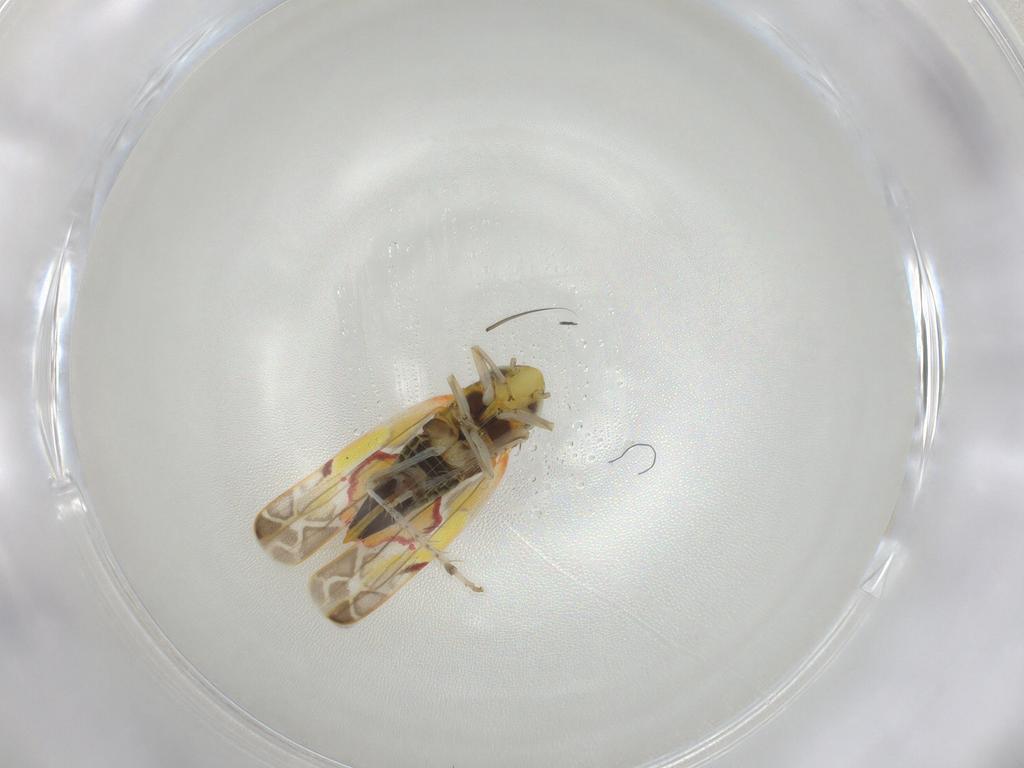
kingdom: Animalia
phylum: Arthropoda
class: Insecta
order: Hemiptera
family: Cicadellidae
